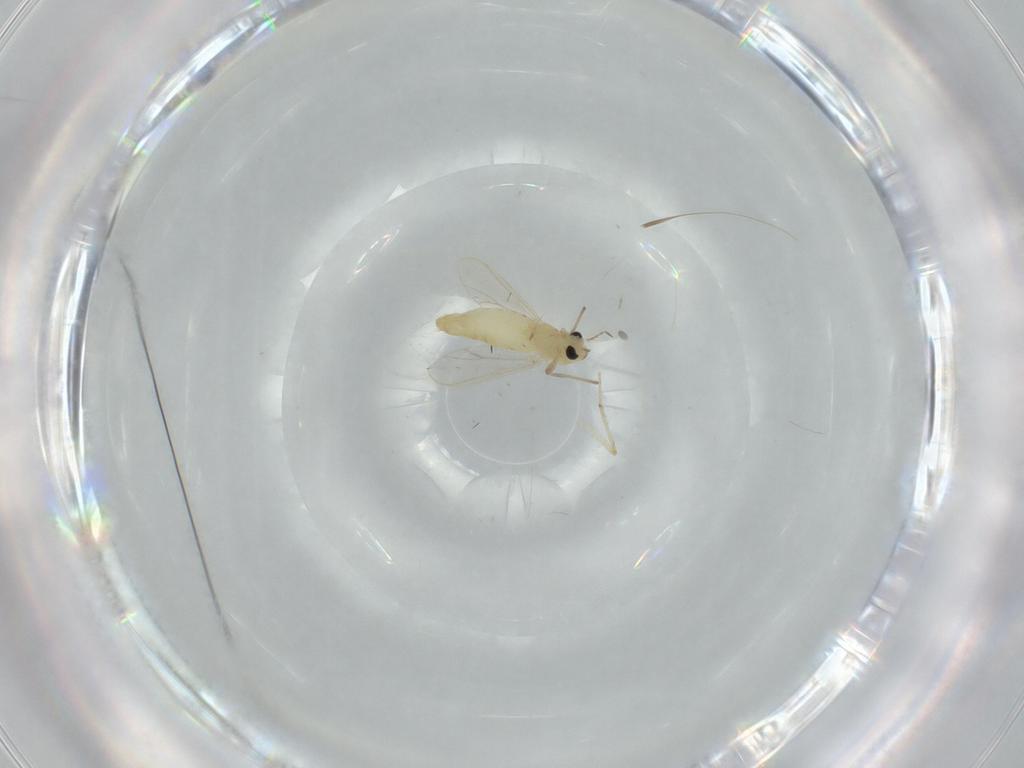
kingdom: Animalia
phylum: Arthropoda
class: Insecta
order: Diptera
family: Chironomidae
